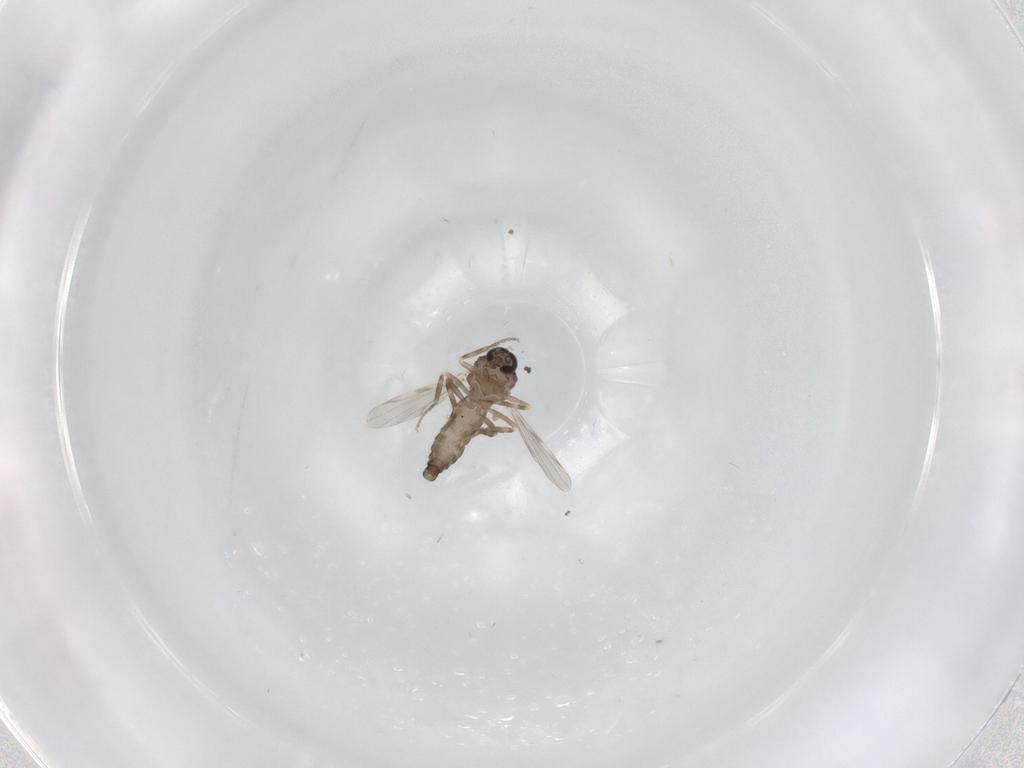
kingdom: Animalia
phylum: Arthropoda
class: Insecta
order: Diptera
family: Ceratopogonidae
